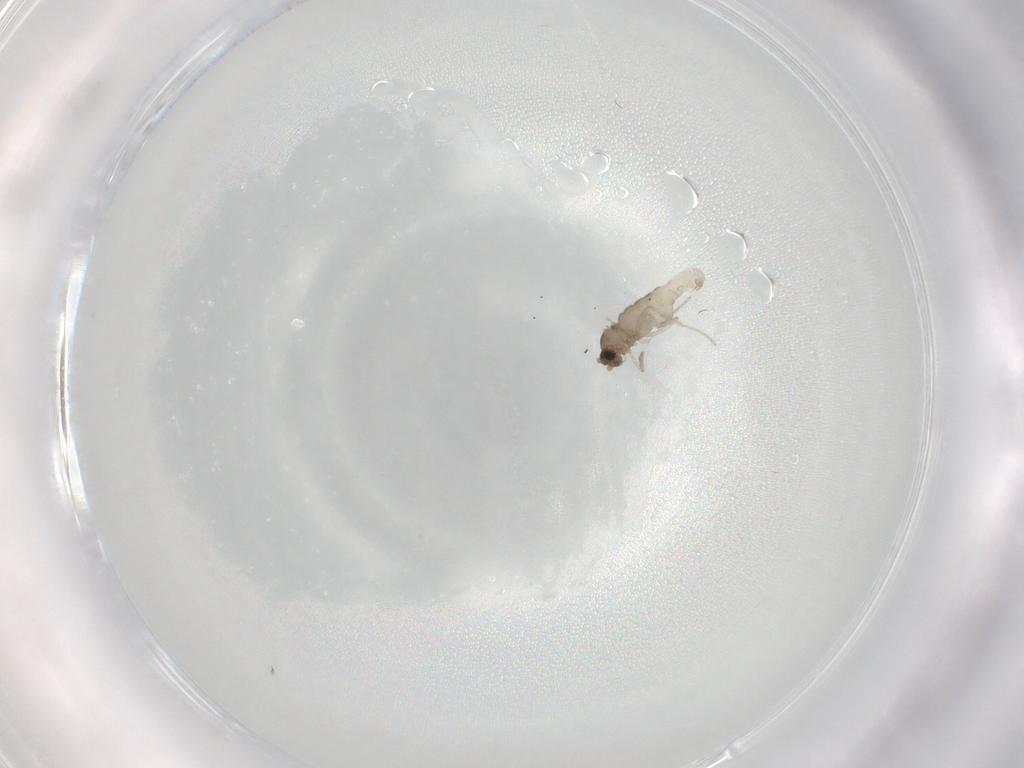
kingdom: Animalia
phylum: Arthropoda
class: Insecta
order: Diptera
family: Cecidomyiidae
